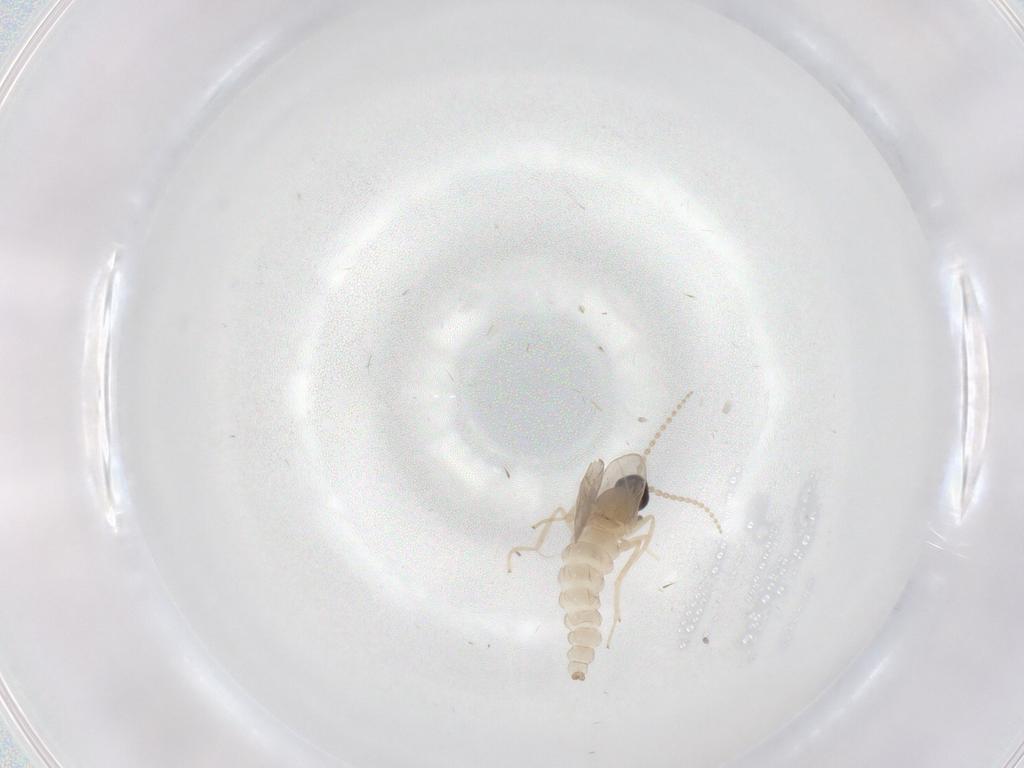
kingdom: Animalia
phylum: Arthropoda
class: Insecta
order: Diptera
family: Cecidomyiidae
